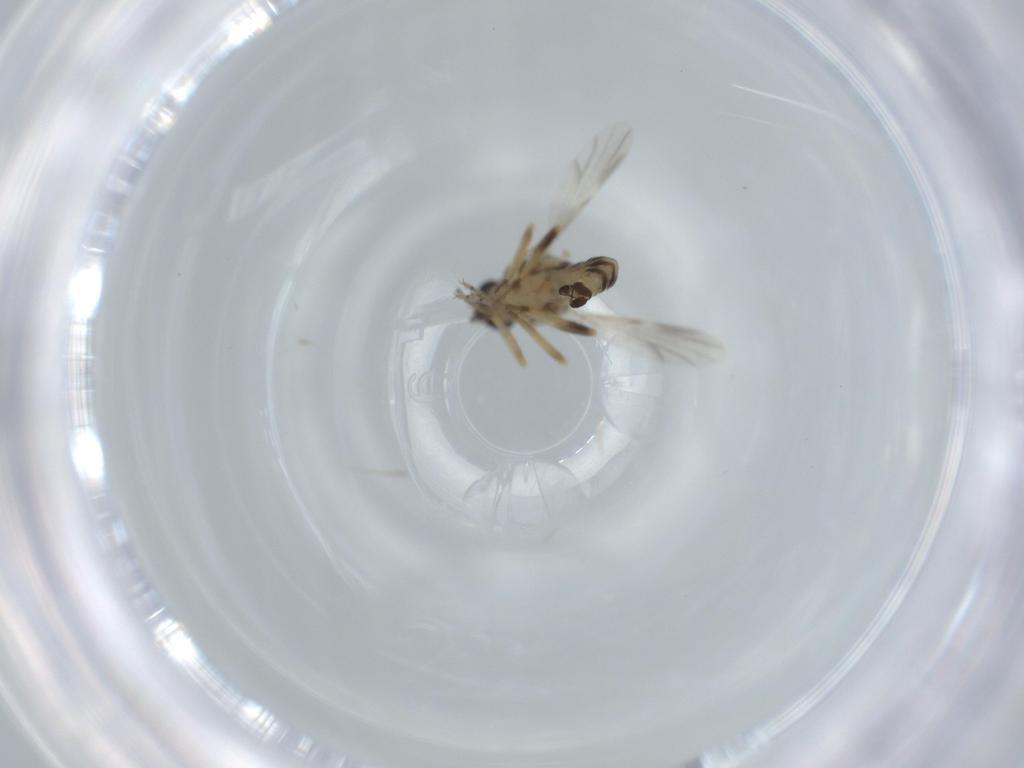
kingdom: Animalia
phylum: Arthropoda
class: Insecta
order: Diptera
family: Ceratopogonidae
